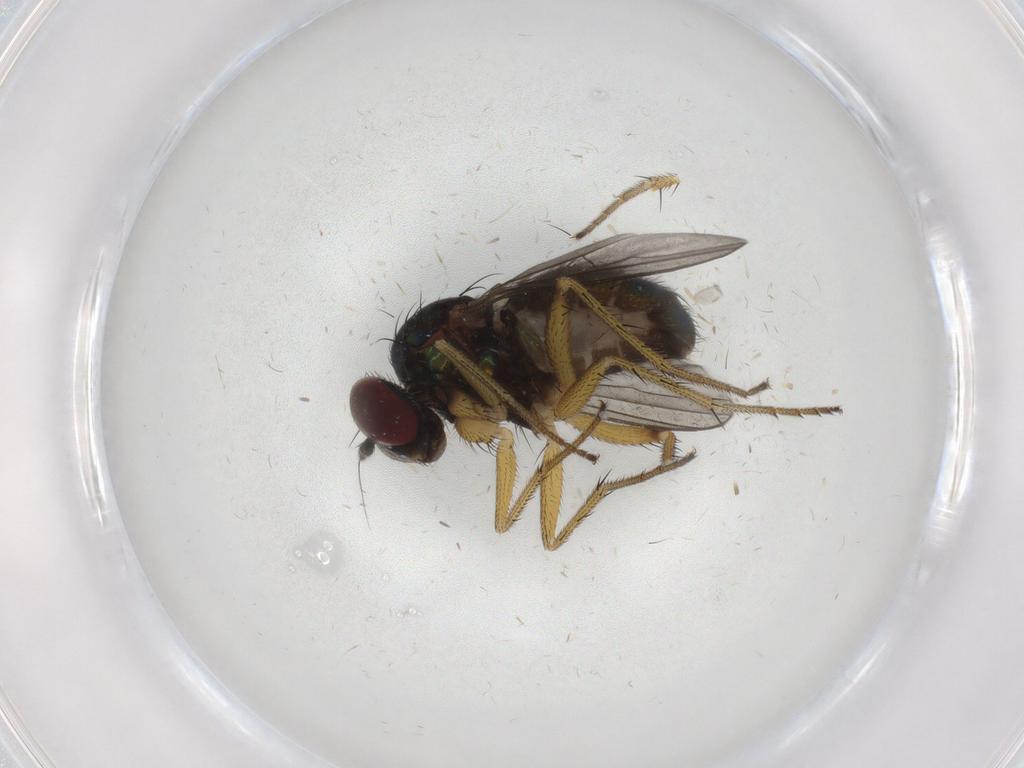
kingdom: Animalia
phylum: Arthropoda
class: Insecta
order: Diptera
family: Dolichopodidae
